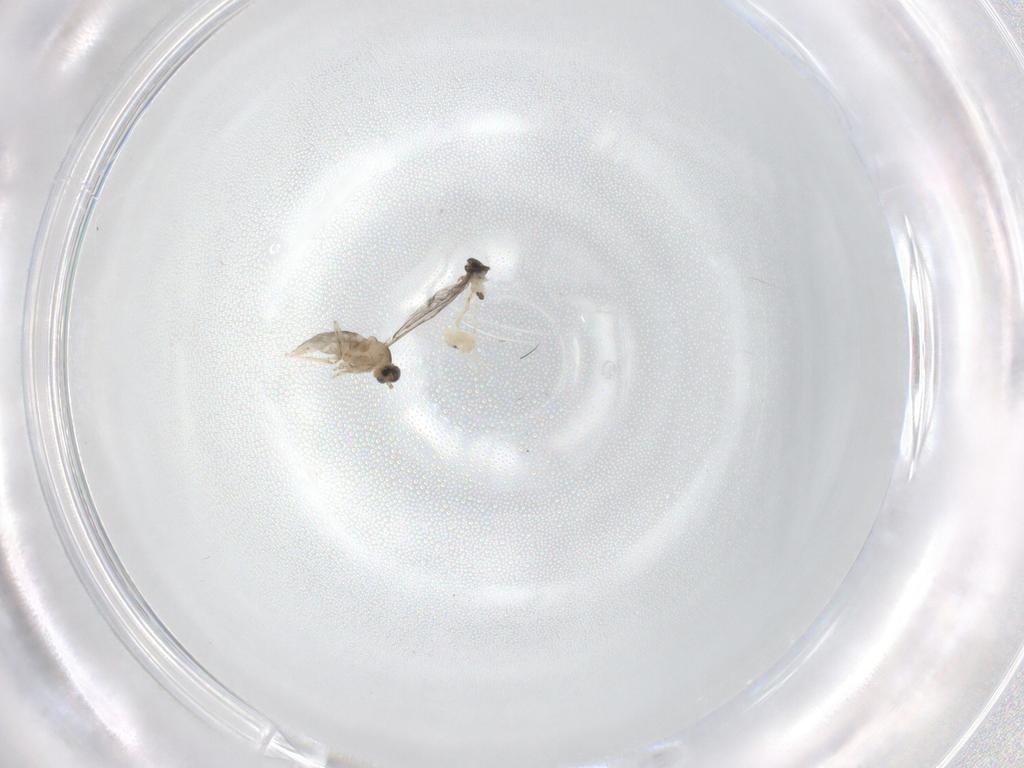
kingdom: Animalia
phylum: Arthropoda
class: Insecta
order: Diptera
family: Cecidomyiidae
